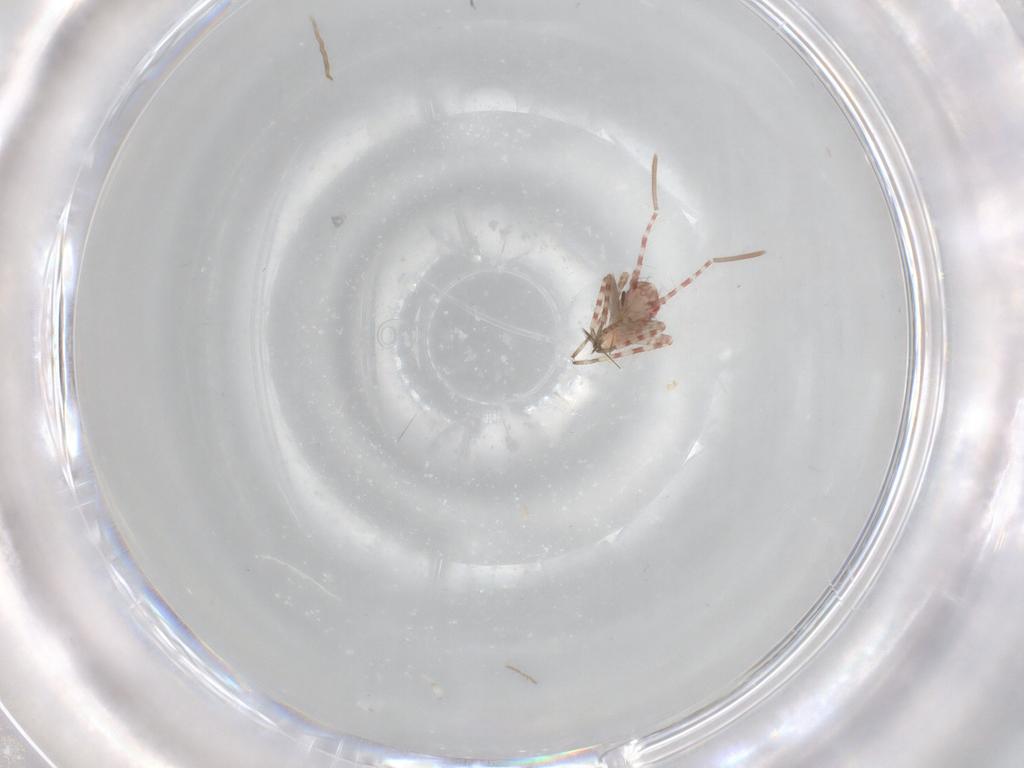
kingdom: Animalia
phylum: Arthropoda
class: Insecta
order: Hemiptera
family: Miridae
